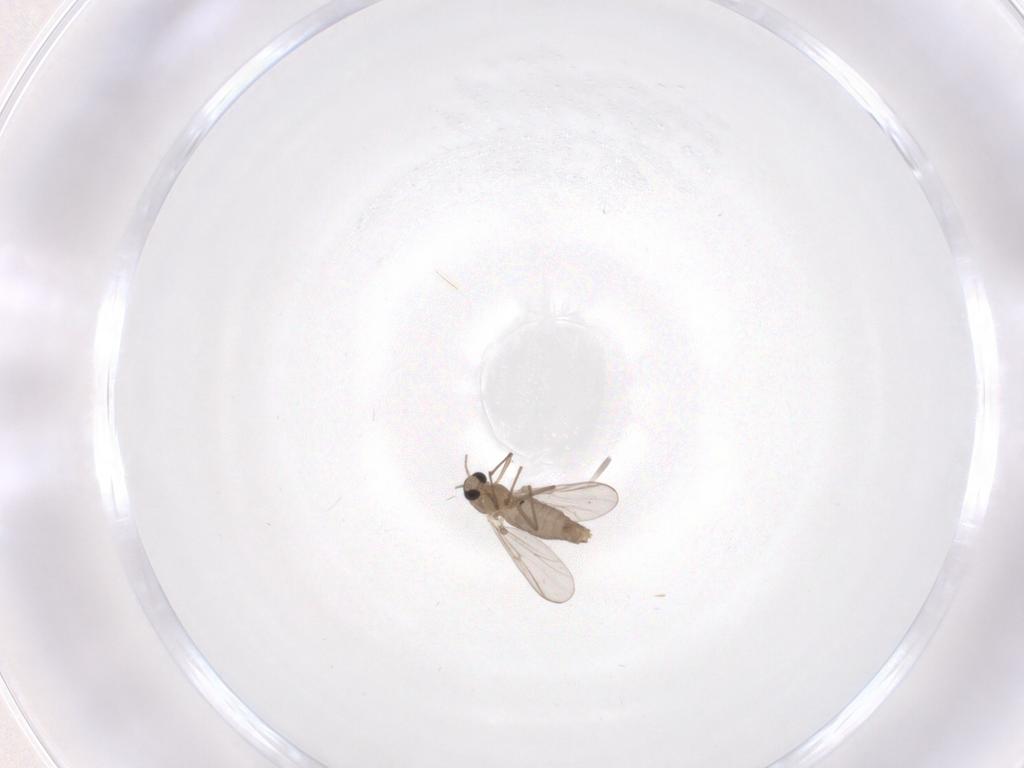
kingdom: Animalia
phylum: Arthropoda
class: Insecta
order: Diptera
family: Chironomidae
